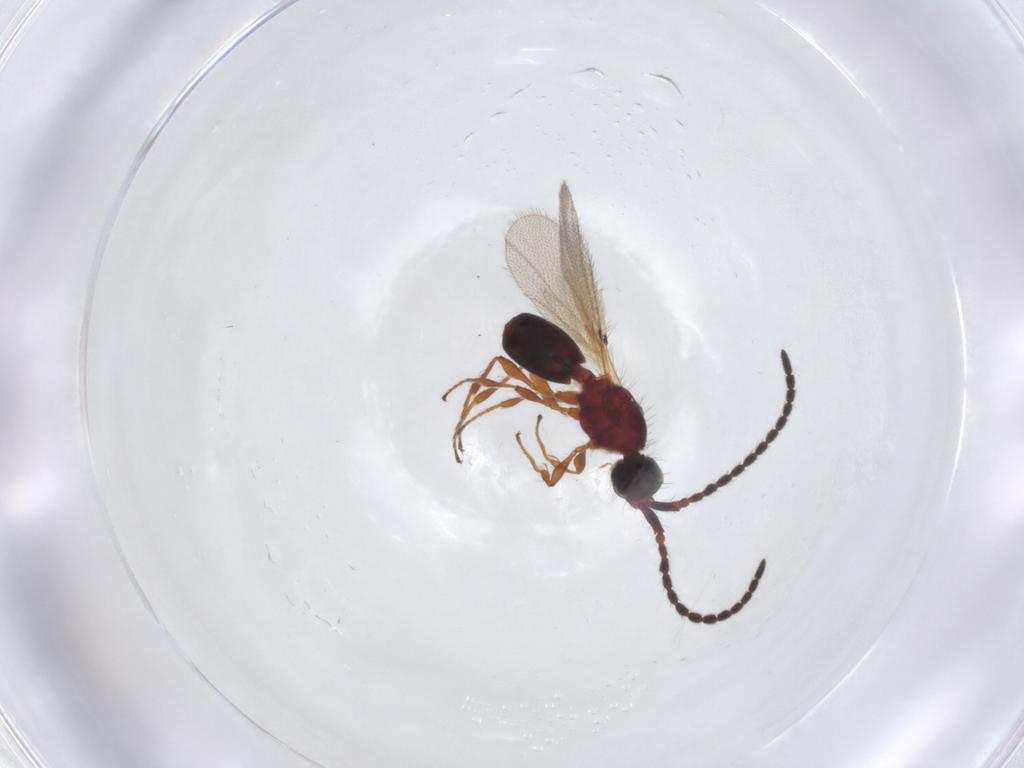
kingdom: Animalia
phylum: Arthropoda
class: Insecta
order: Hymenoptera
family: Diapriidae
